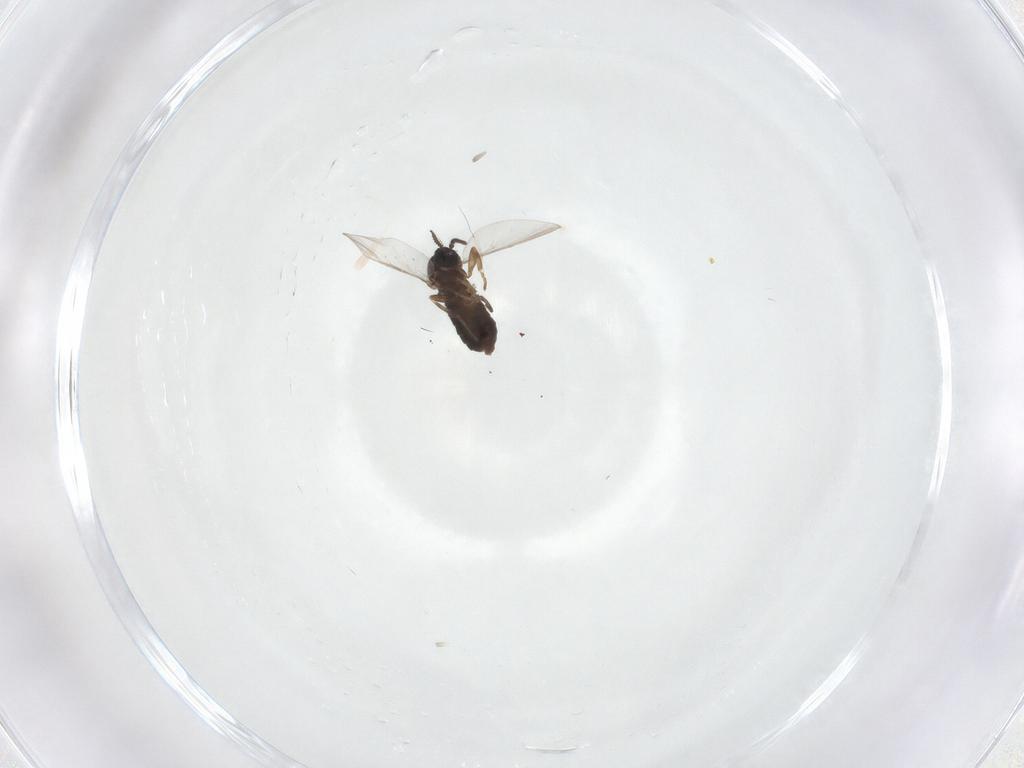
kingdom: Animalia
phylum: Arthropoda
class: Insecta
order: Diptera
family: Scatopsidae
